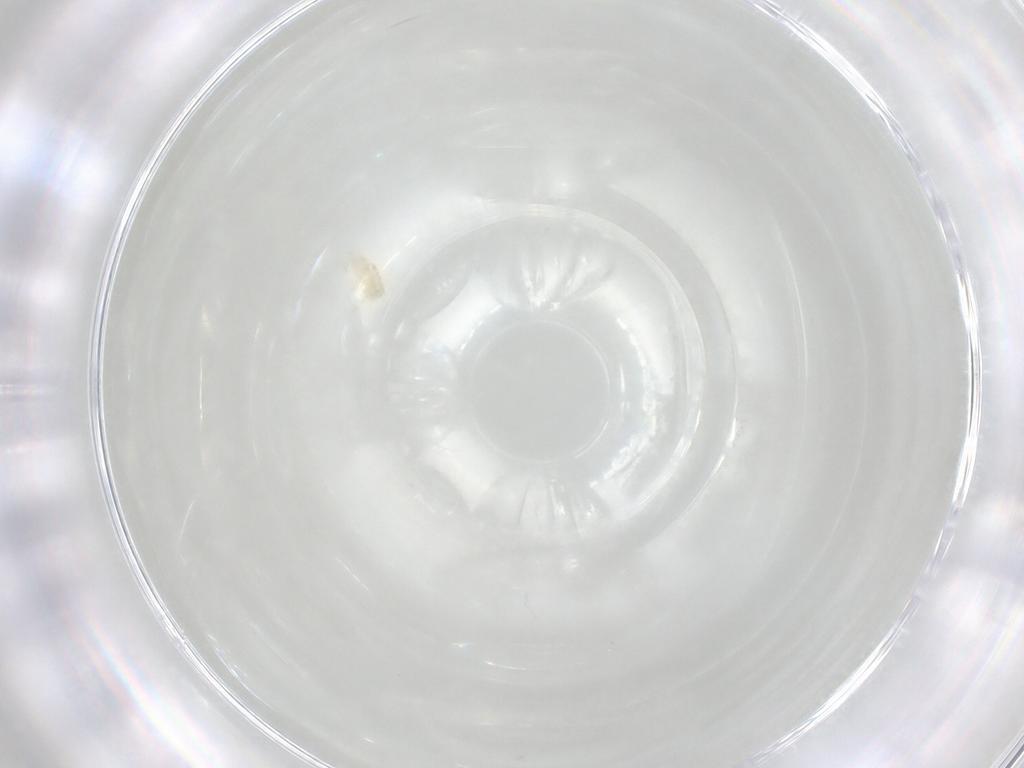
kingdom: Animalia
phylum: Arthropoda
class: Arachnida
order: Trombidiformes
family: Eupodidae
